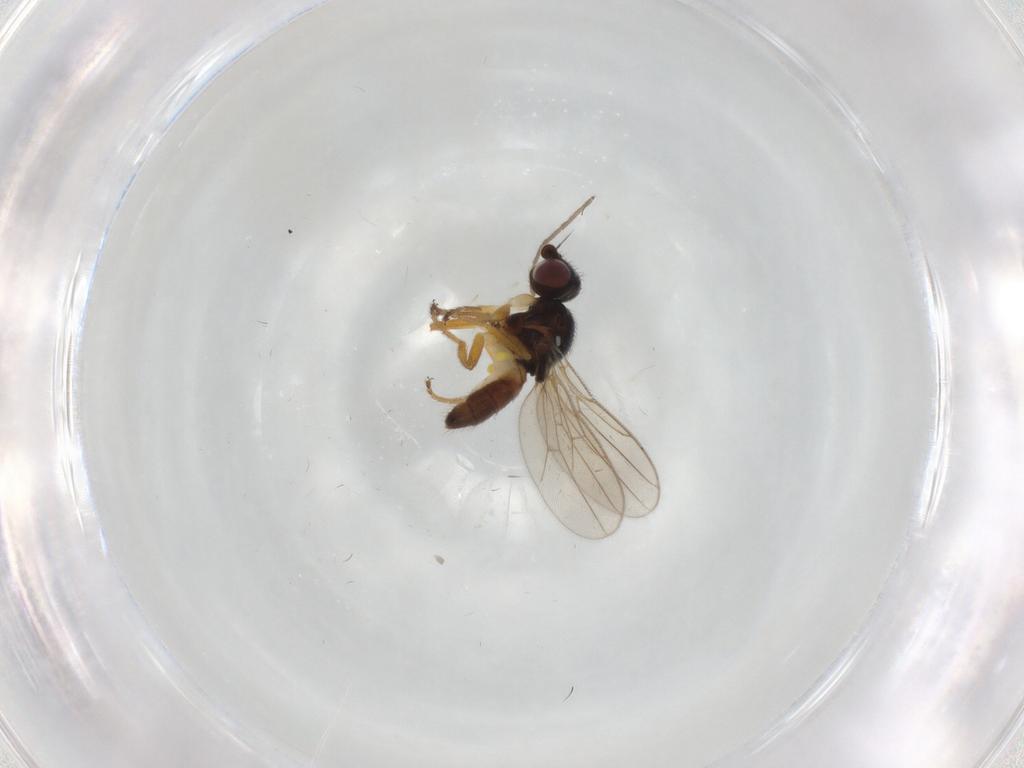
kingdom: Animalia
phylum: Arthropoda
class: Insecta
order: Diptera
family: Chloropidae
